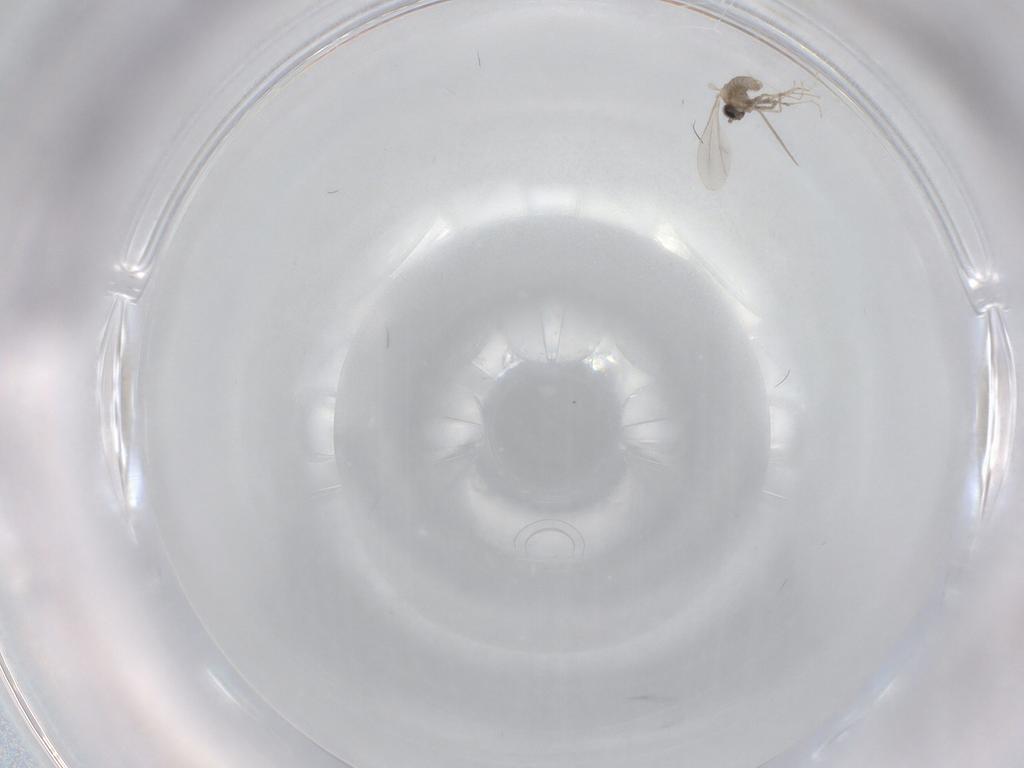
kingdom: Animalia
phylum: Arthropoda
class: Insecta
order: Diptera
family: Cecidomyiidae
